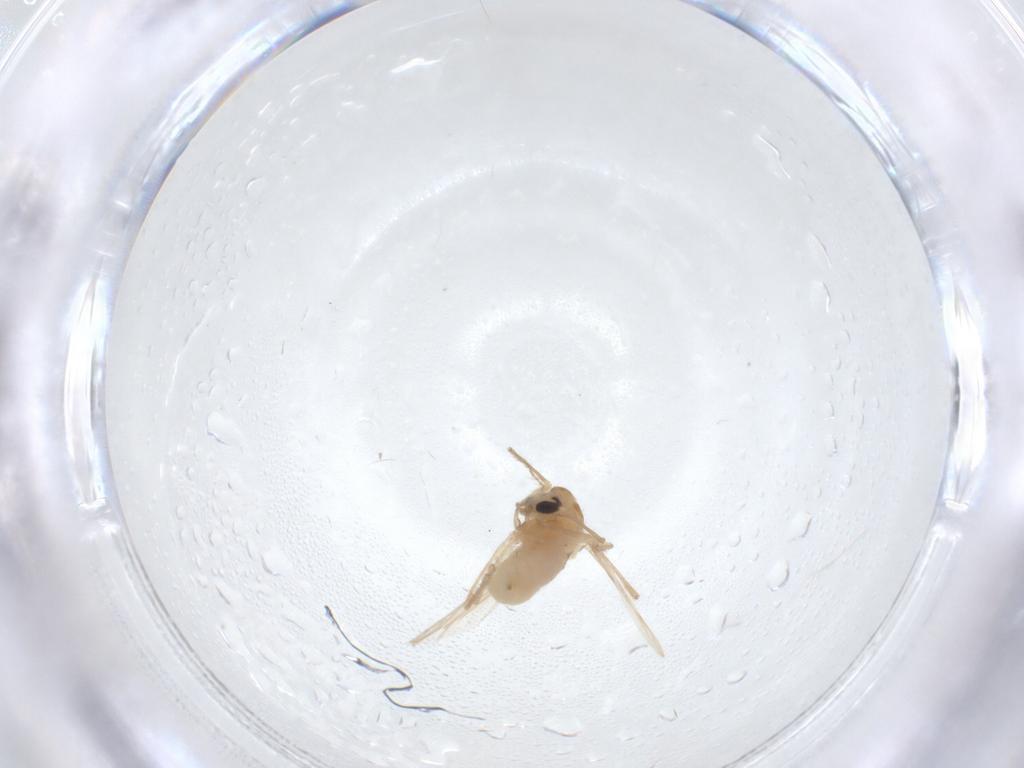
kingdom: Animalia
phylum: Arthropoda
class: Insecta
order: Diptera
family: Chironomidae
